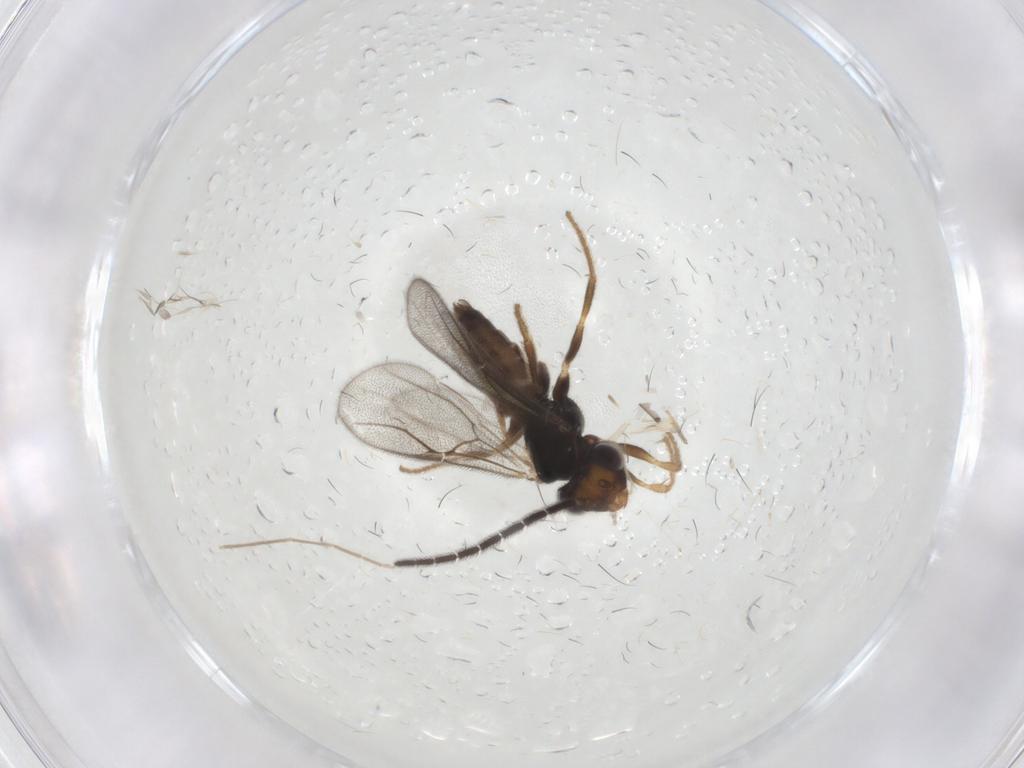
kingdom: Animalia
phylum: Arthropoda
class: Insecta
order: Hymenoptera
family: Dryinidae
